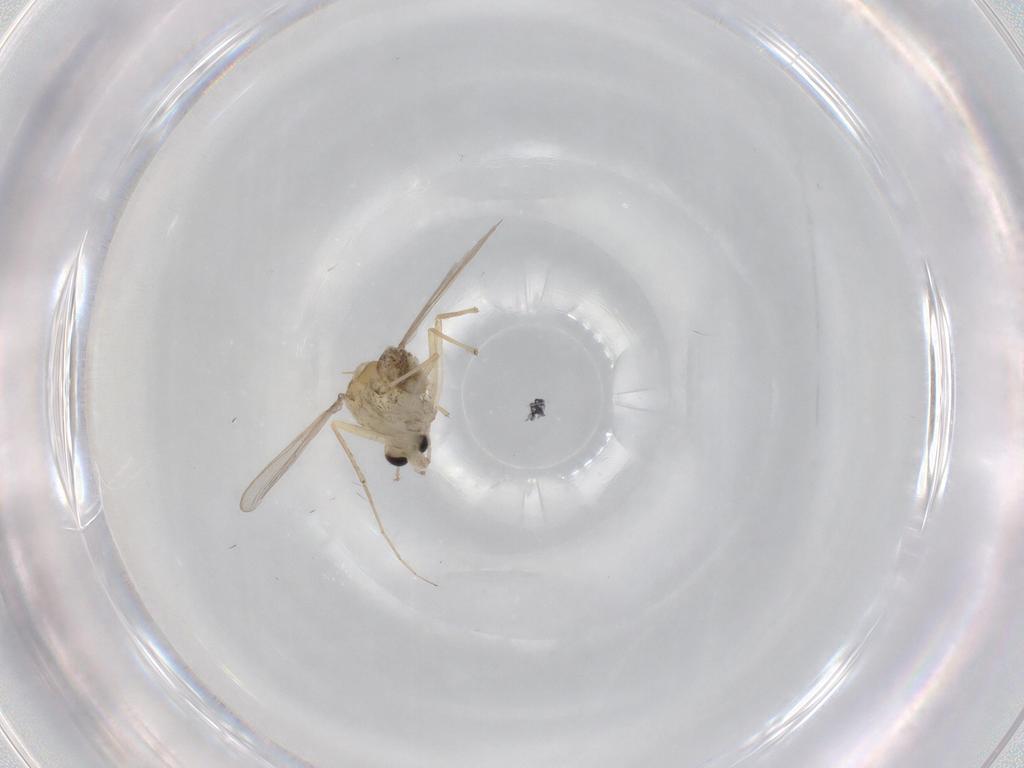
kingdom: Animalia
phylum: Arthropoda
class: Insecta
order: Diptera
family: Chironomidae
